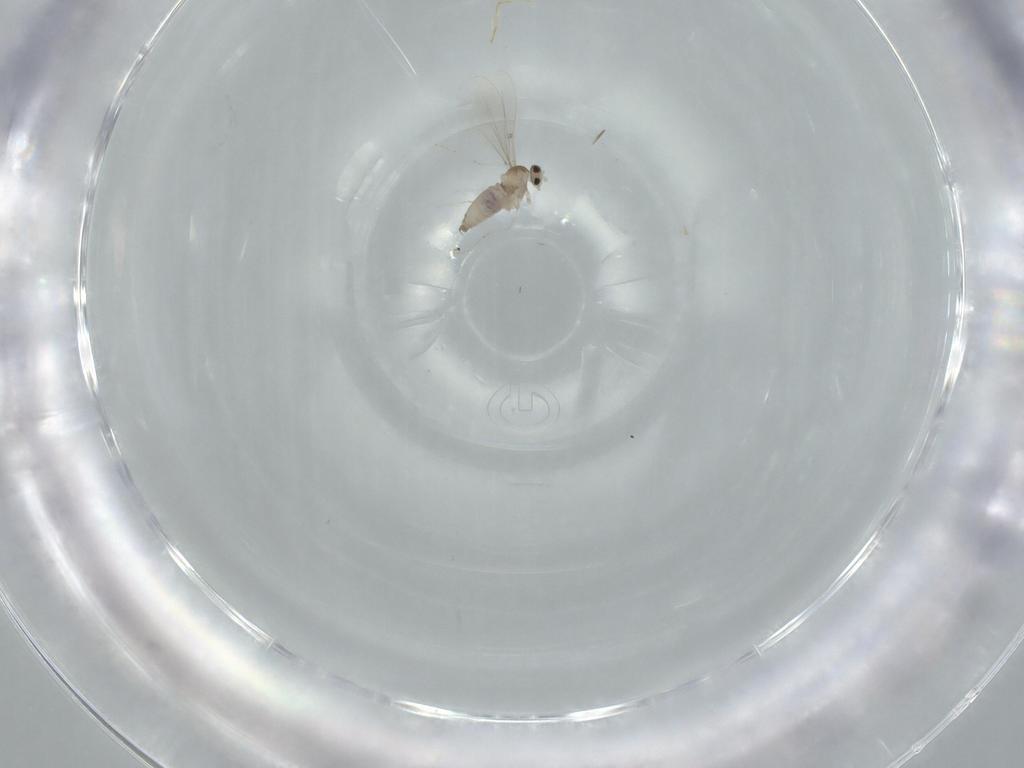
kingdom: Animalia
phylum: Arthropoda
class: Insecta
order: Diptera
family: Cecidomyiidae
